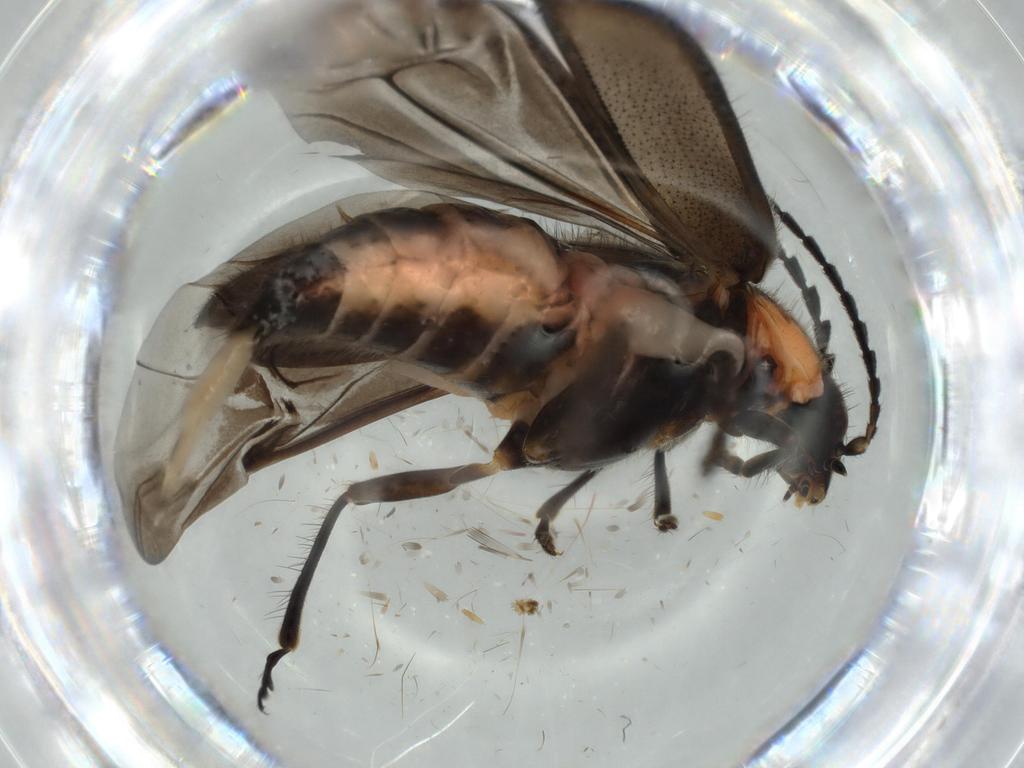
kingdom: Animalia
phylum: Arthropoda
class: Insecta
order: Coleoptera
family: Melyridae
